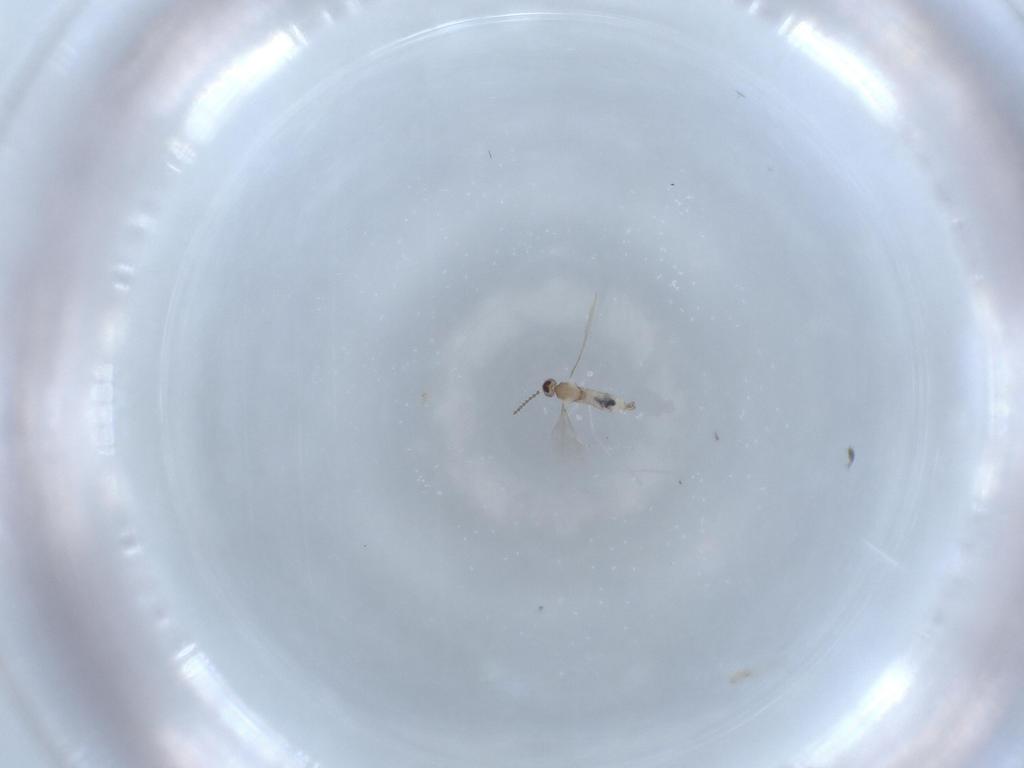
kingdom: Animalia
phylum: Arthropoda
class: Insecta
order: Diptera
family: Cecidomyiidae
